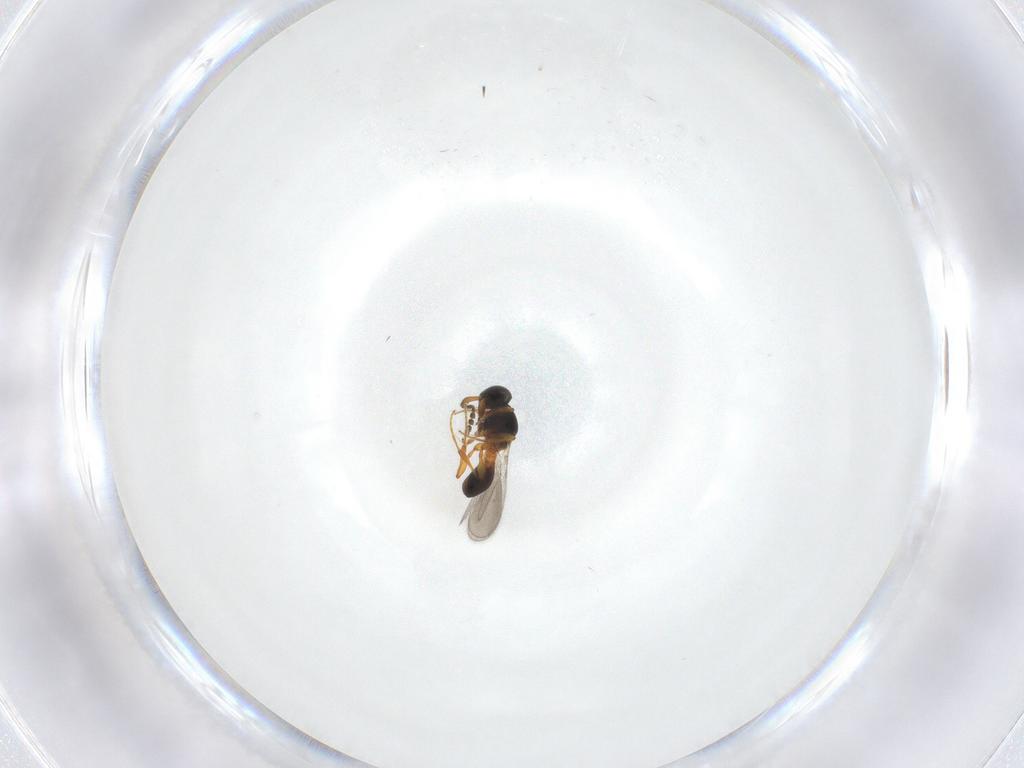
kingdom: Animalia
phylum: Arthropoda
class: Insecta
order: Hymenoptera
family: Platygastridae
